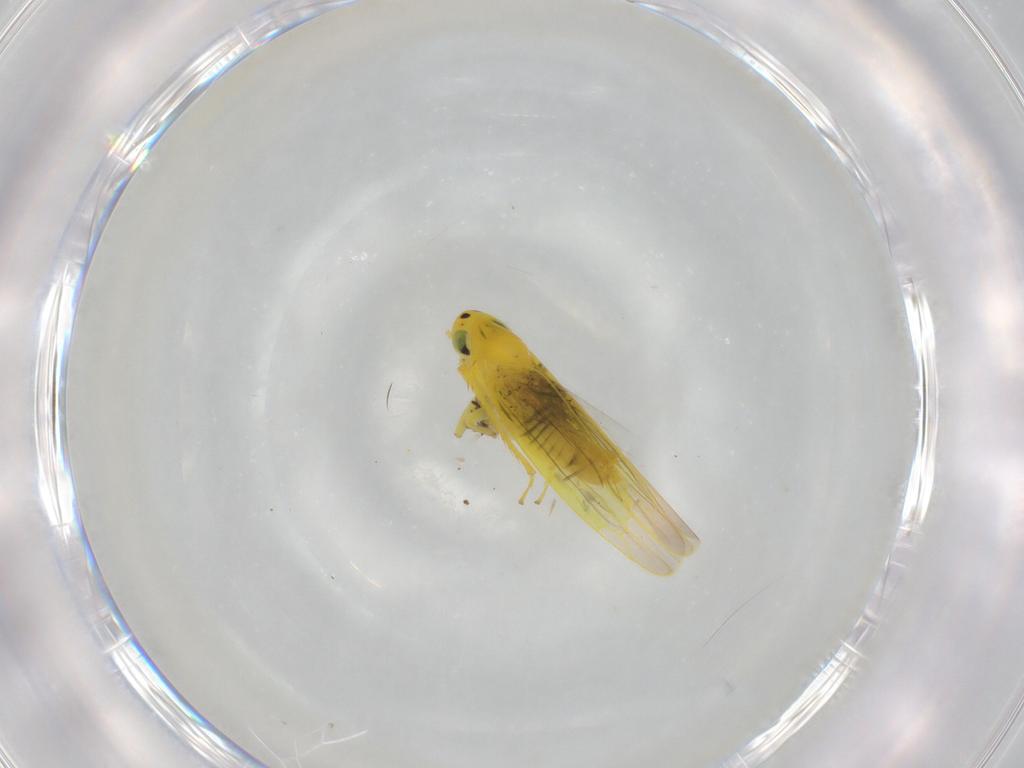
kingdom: Animalia
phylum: Arthropoda
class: Insecta
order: Hemiptera
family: Cicadellidae
